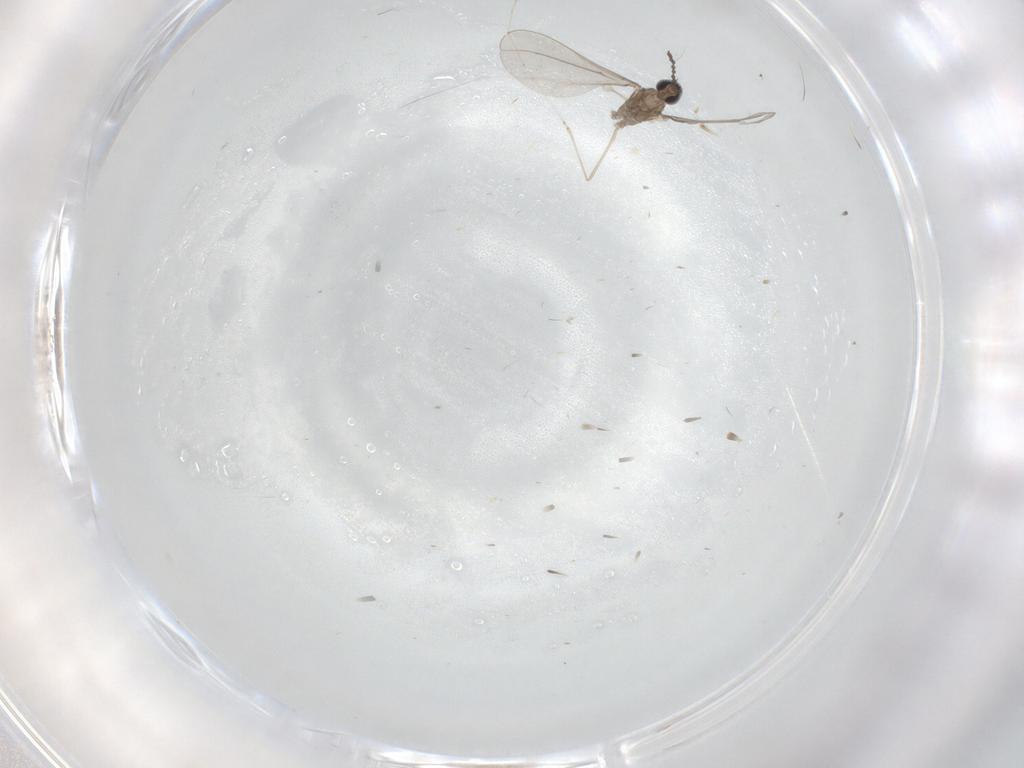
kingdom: Animalia
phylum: Arthropoda
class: Insecta
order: Diptera
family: Cecidomyiidae
